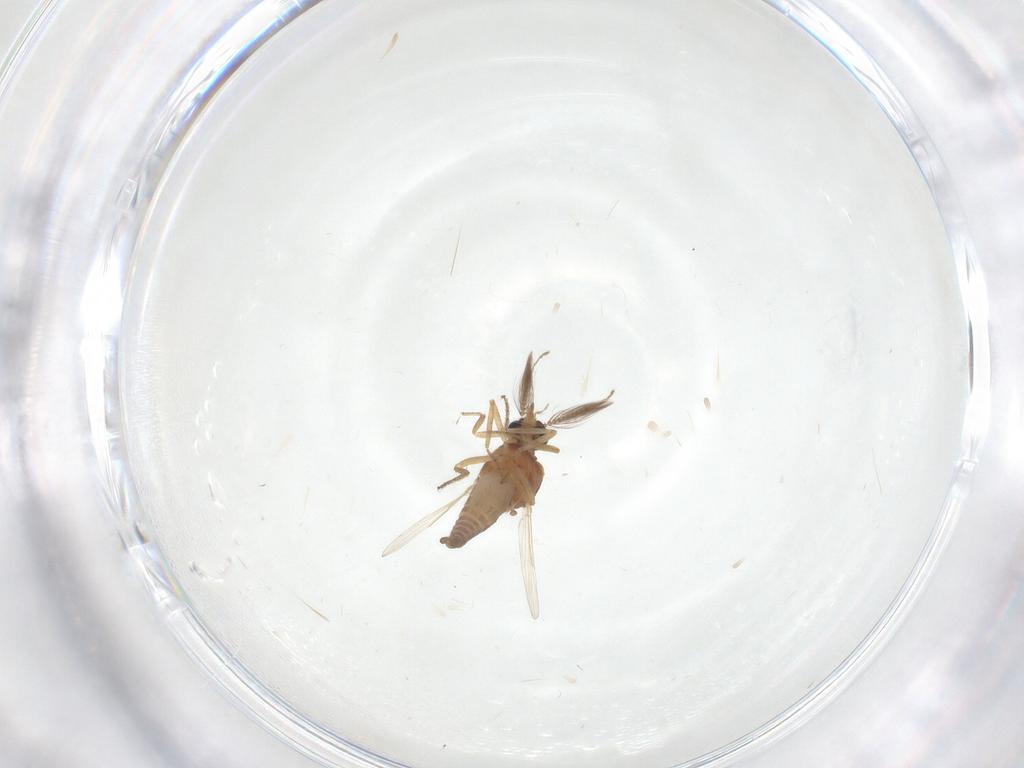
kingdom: Animalia
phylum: Arthropoda
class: Insecta
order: Diptera
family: Ceratopogonidae
